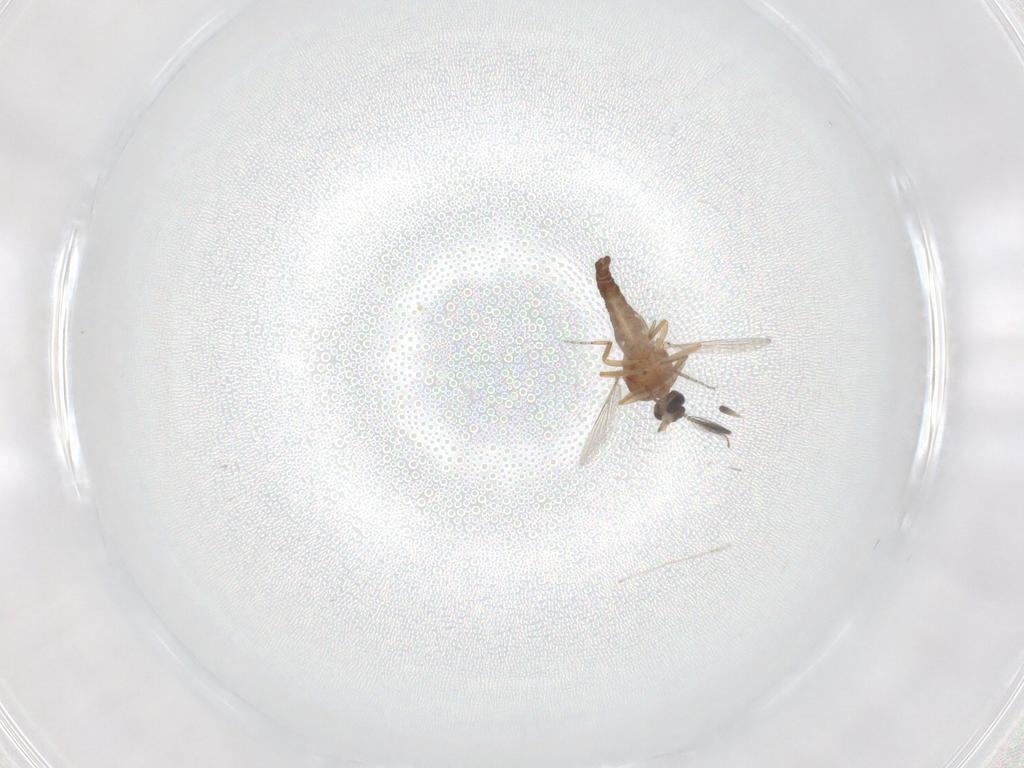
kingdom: Animalia
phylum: Arthropoda
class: Insecta
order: Diptera
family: Ceratopogonidae
